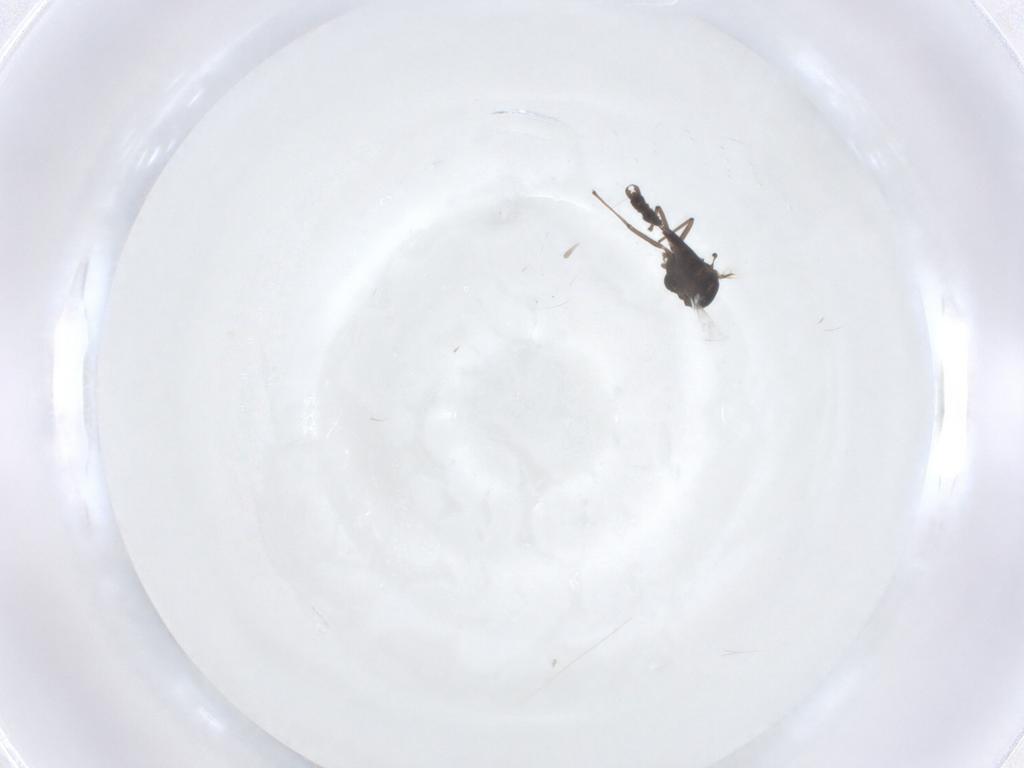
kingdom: Animalia
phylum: Arthropoda
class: Insecta
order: Diptera
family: Chironomidae
